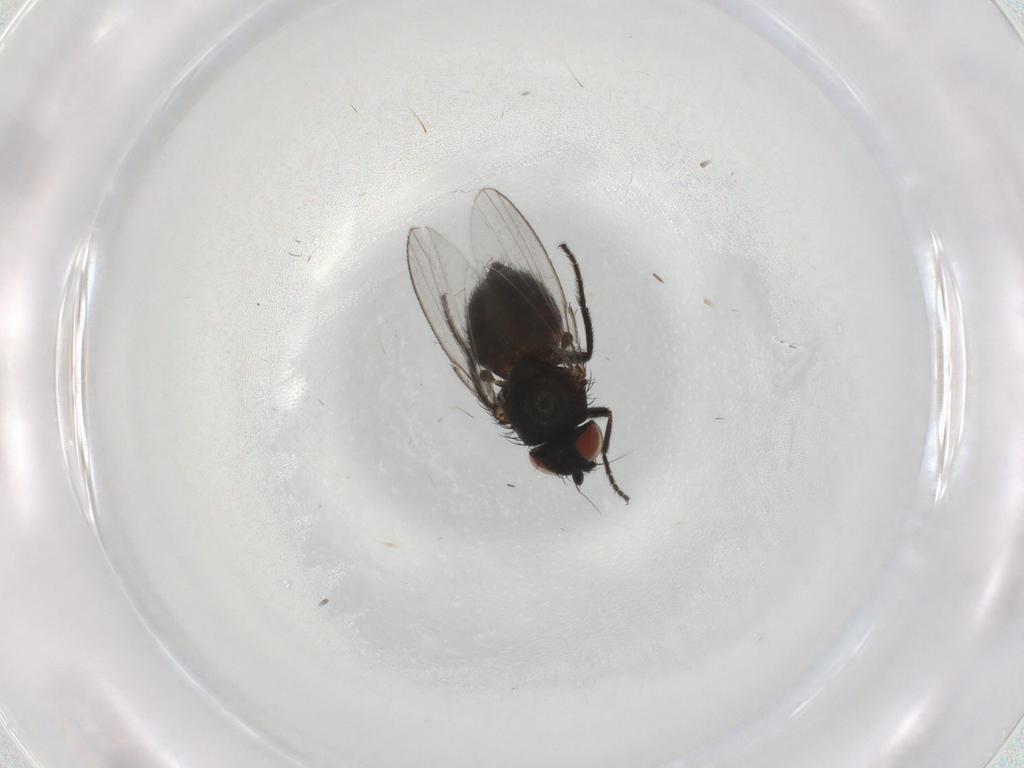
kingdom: Animalia
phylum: Arthropoda
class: Insecta
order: Diptera
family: Milichiidae
